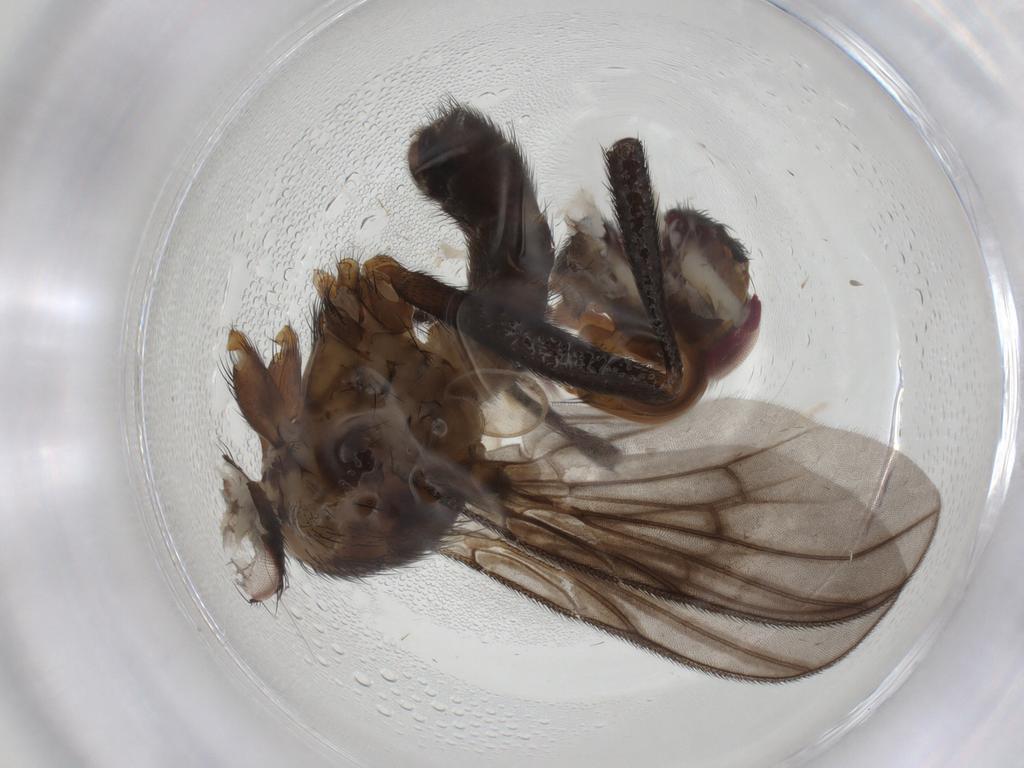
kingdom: Animalia
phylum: Arthropoda
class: Insecta
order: Diptera
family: Calliphoridae
